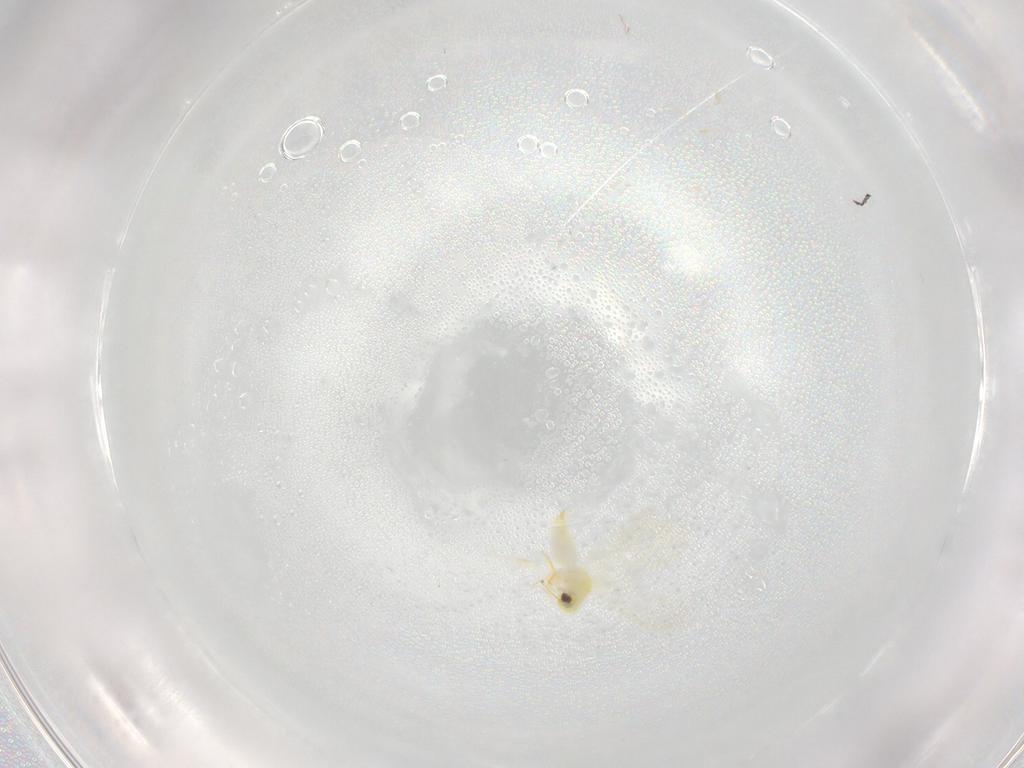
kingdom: Animalia
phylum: Arthropoda
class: Insecta
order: Hemiptera
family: Aleyrodidae
